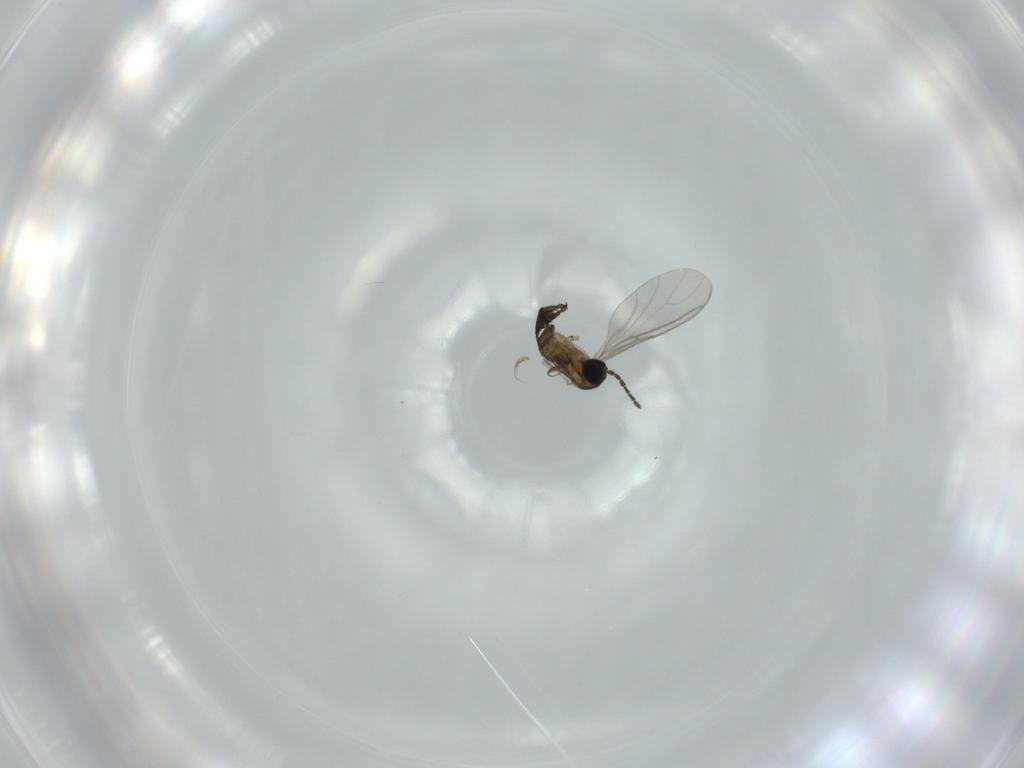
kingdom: Animalia
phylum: Arthropoda
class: Insecta
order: Diptera
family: Sciaridae
